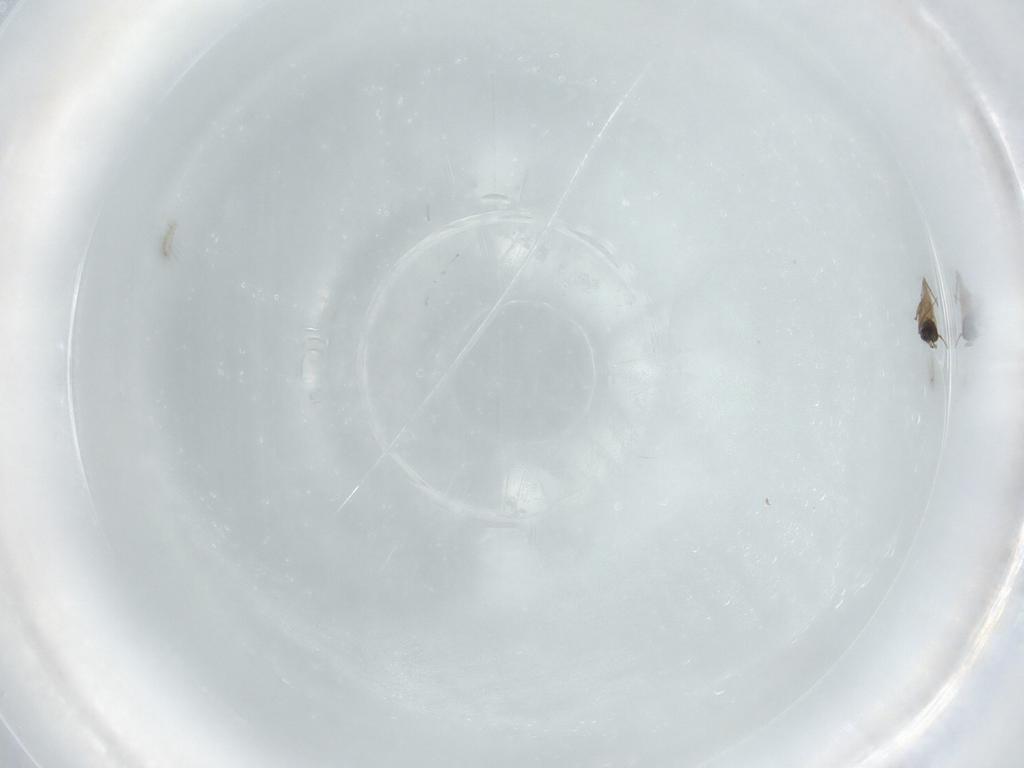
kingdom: Animalia
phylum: Arthropoda
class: Insecta
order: Hymenoptera
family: Mymaridae
